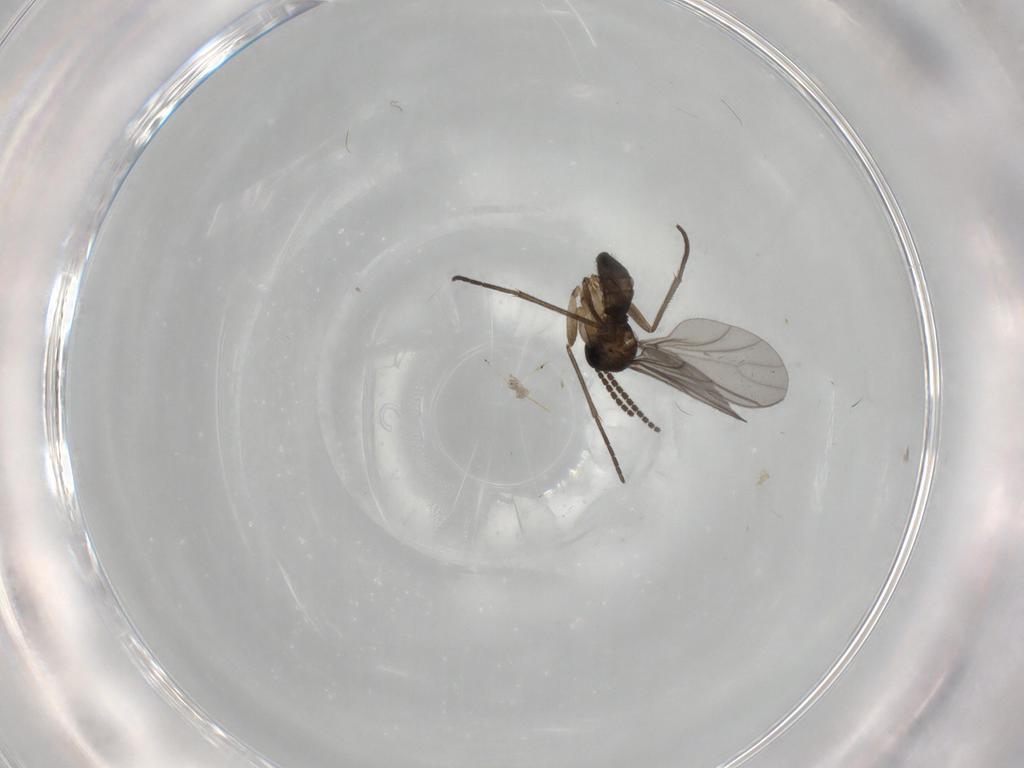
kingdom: Animalia
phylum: Arthropoda
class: Insecta
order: Diptera
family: Sciaridae
